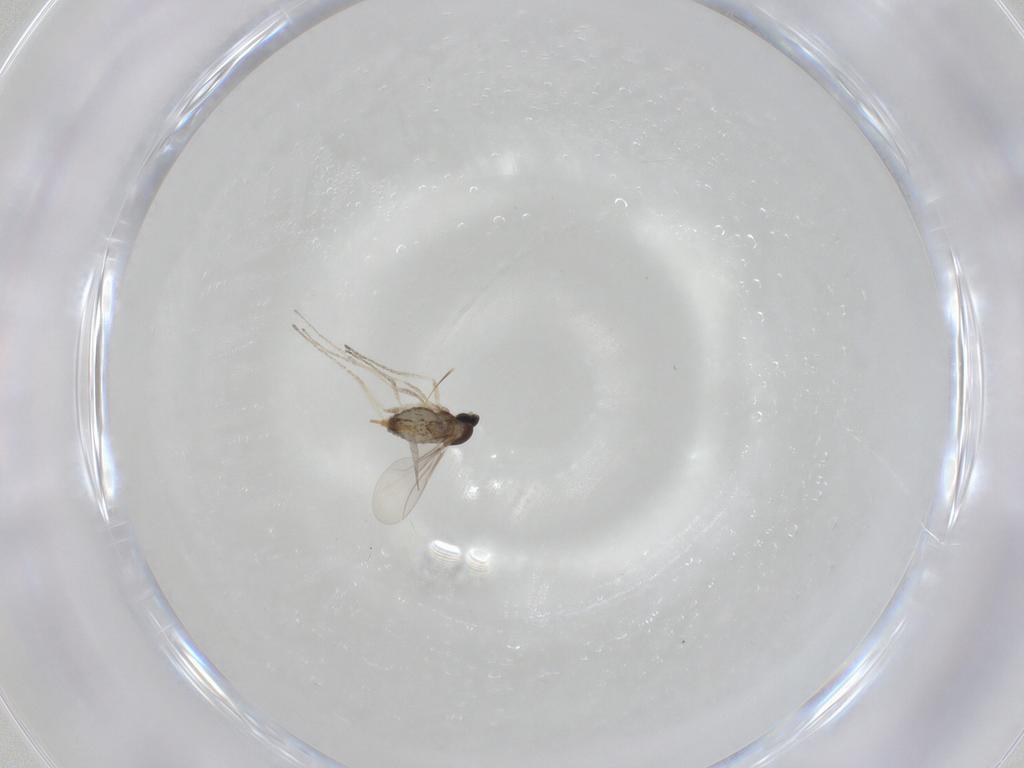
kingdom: Animalia
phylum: Arthropoda
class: Insecta
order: Diptera
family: Cecidomyiidae
